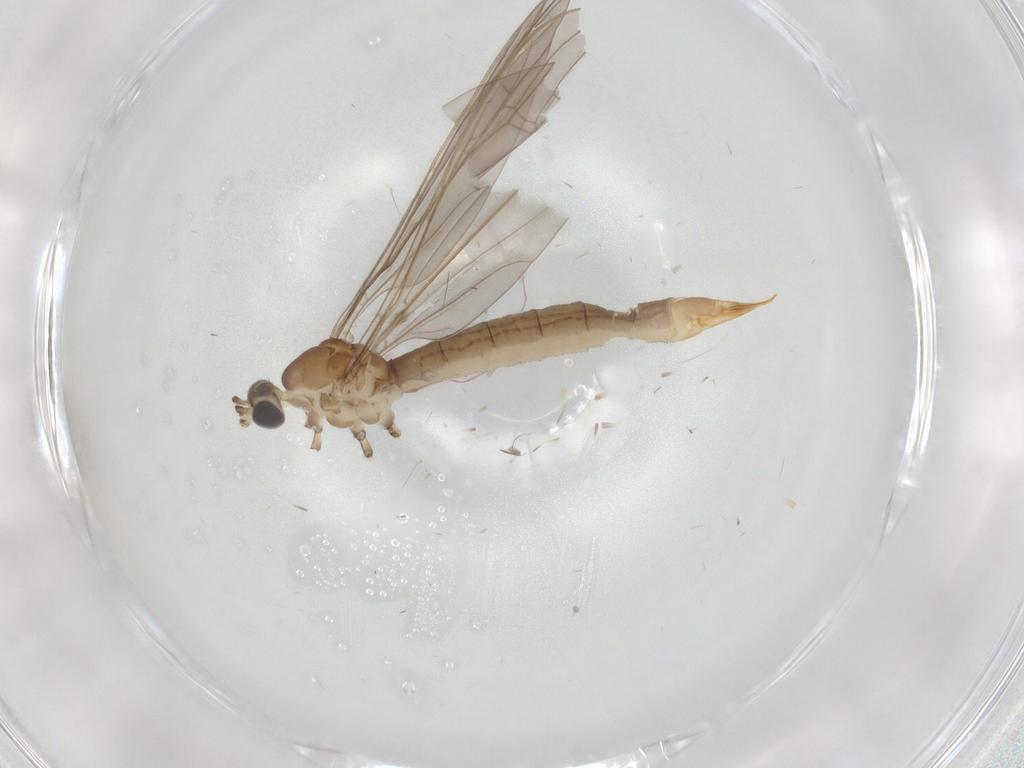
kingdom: Animalia
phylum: Arthropoda
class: Insecta
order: Diptera
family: Limoniidae
